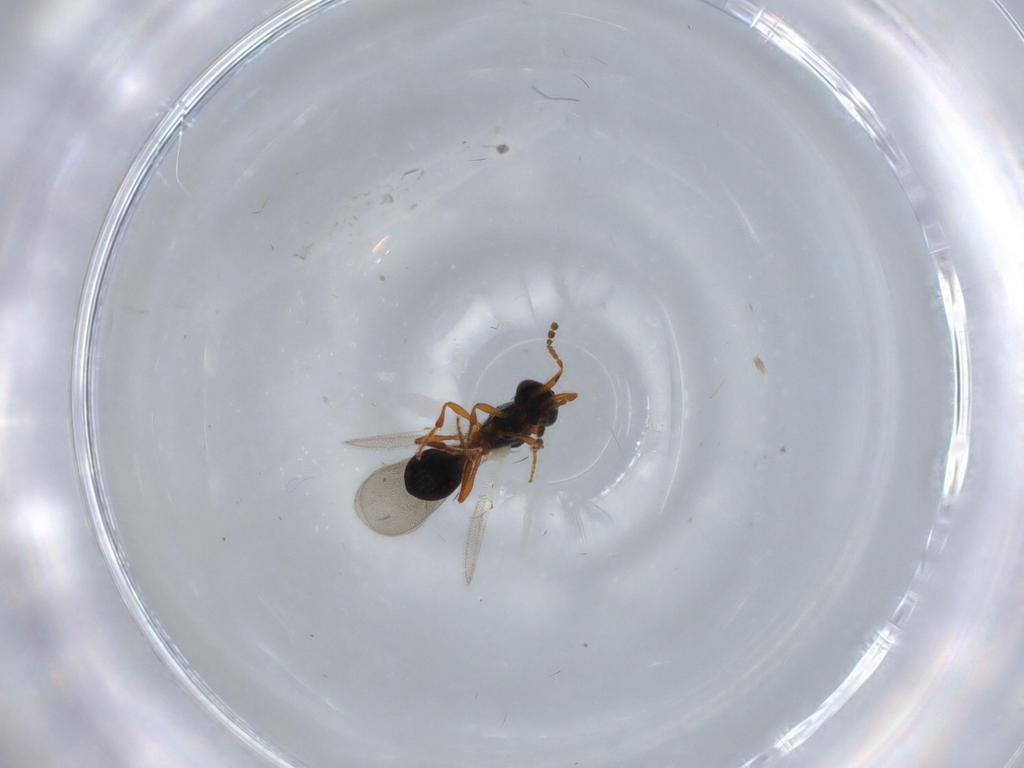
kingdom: Animalia
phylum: Arthropoda
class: Insecta
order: Hymenoptera
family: Platygastridae
